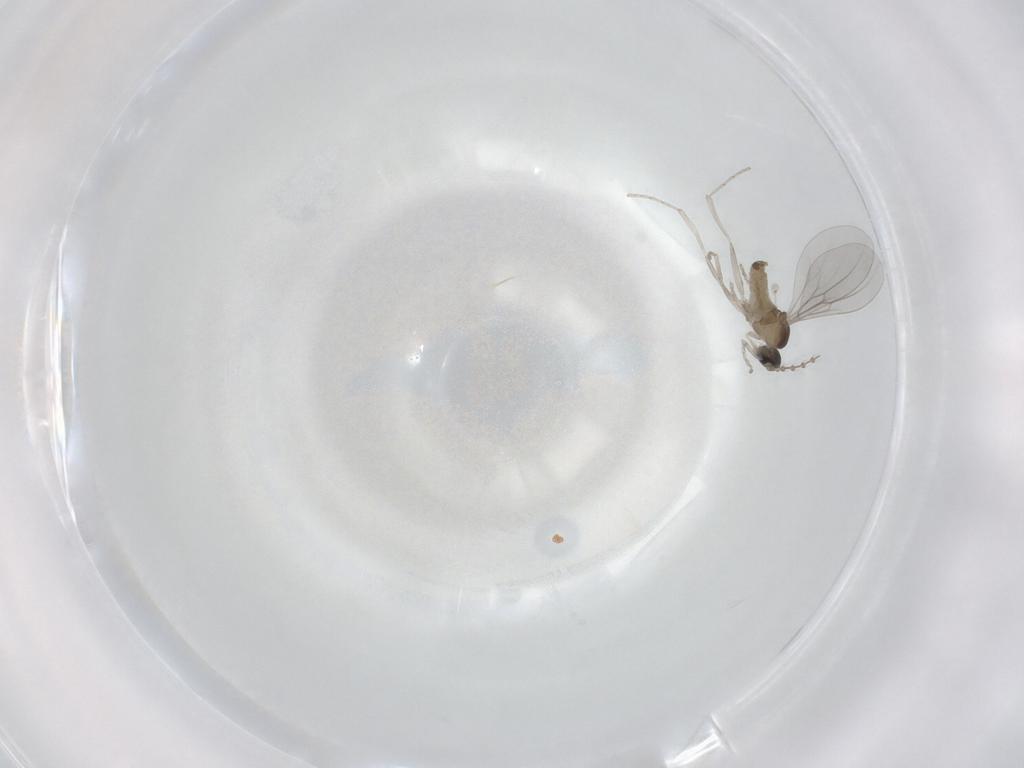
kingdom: Animalia
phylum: Arthropoda
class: Insecta
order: Diptera
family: Cecidomyiidae
